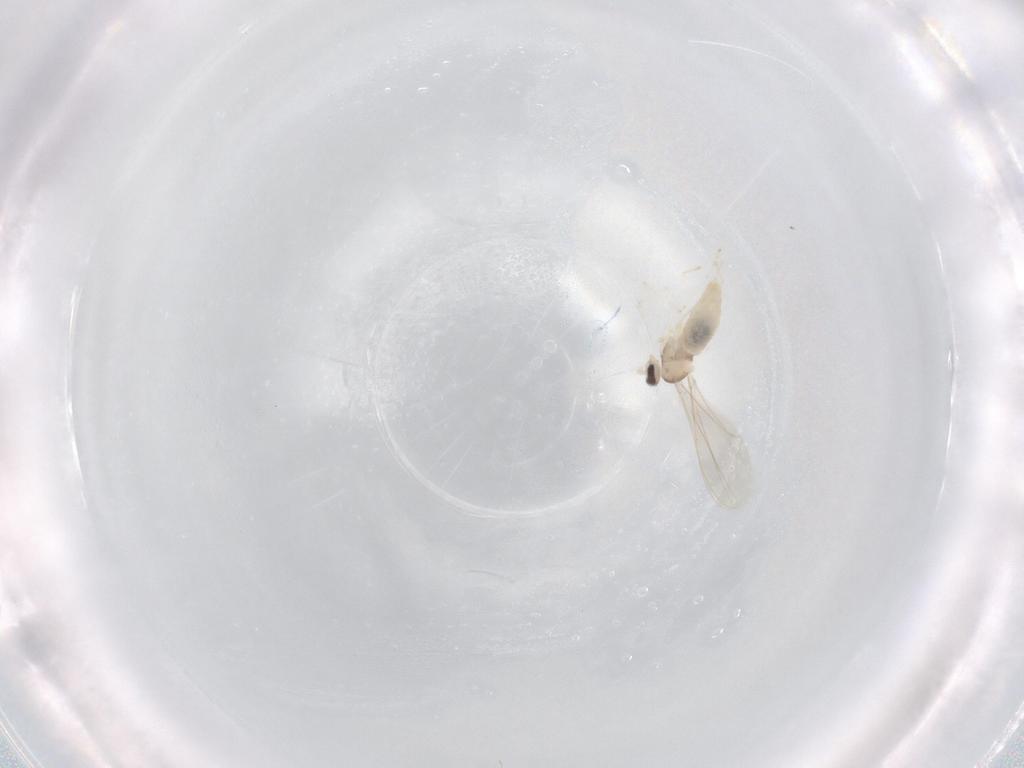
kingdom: Animalia
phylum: Arthropoda
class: Insecta
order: Diptera
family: Cecidomyiidae
